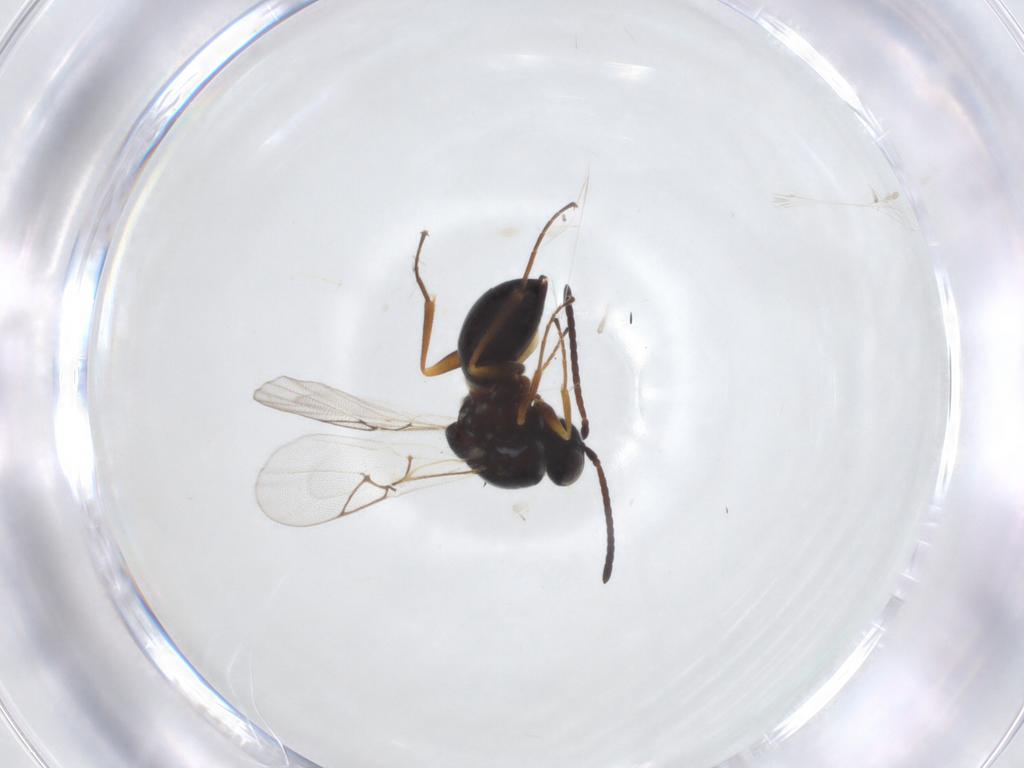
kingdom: Animalia
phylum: Arthropoda
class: Insecta
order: Hymenoptera
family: Figitidae
